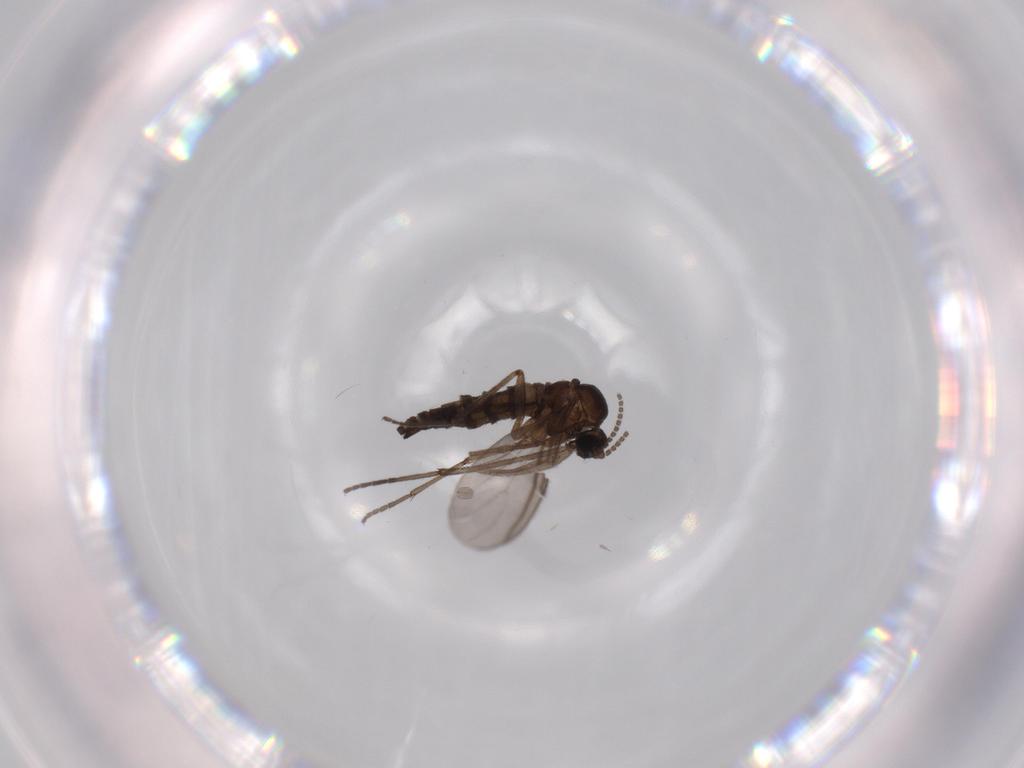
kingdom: Animalia
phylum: Arthropoda
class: Insecta
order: Diptera
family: Sciaridae
